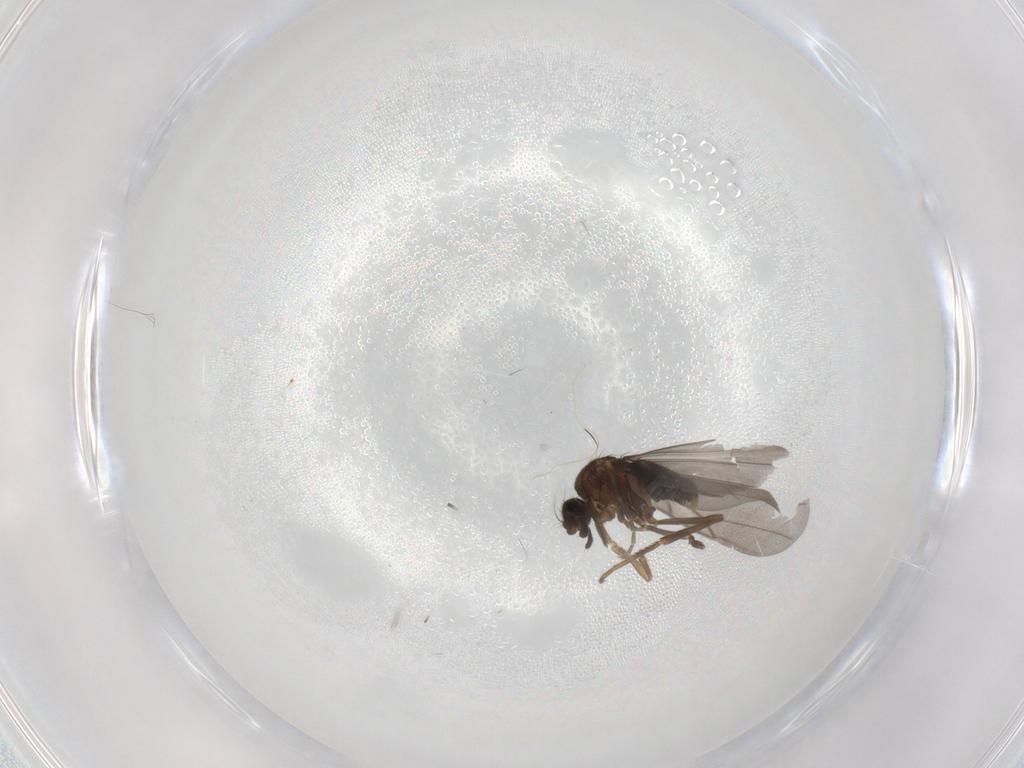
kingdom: Animalia
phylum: Arthropoda
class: Insecta
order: Diptera
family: Phoridae
